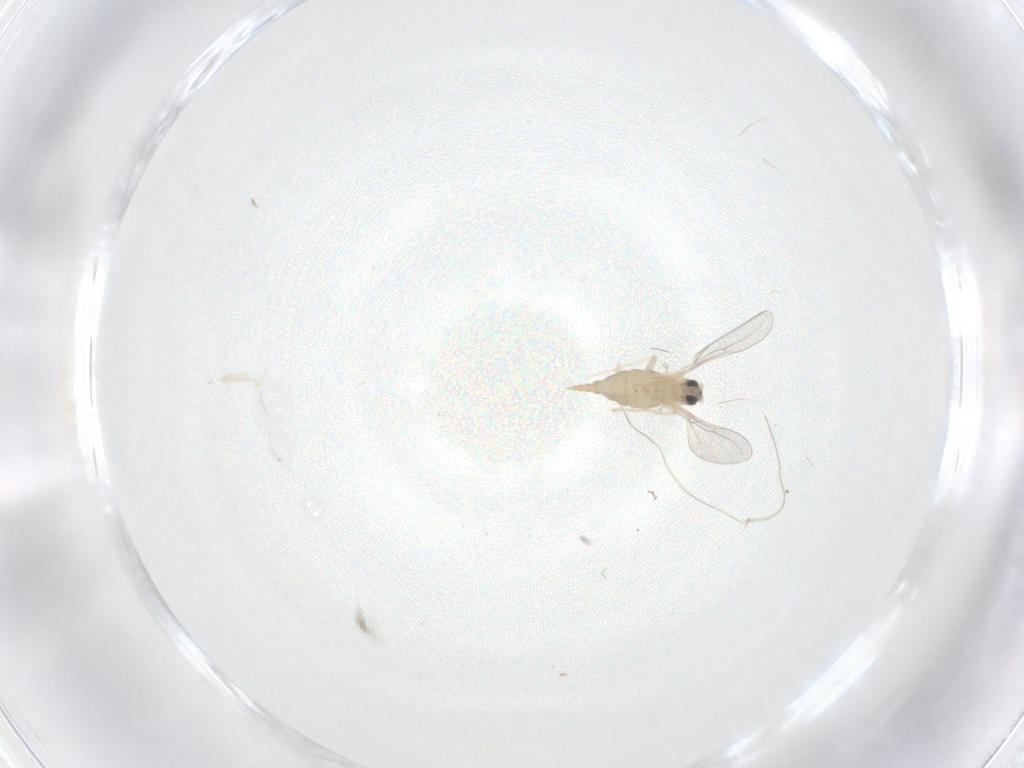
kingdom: Animalia
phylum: Arthropoda
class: Insecta
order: Diptera
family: Cecidomyiidae
